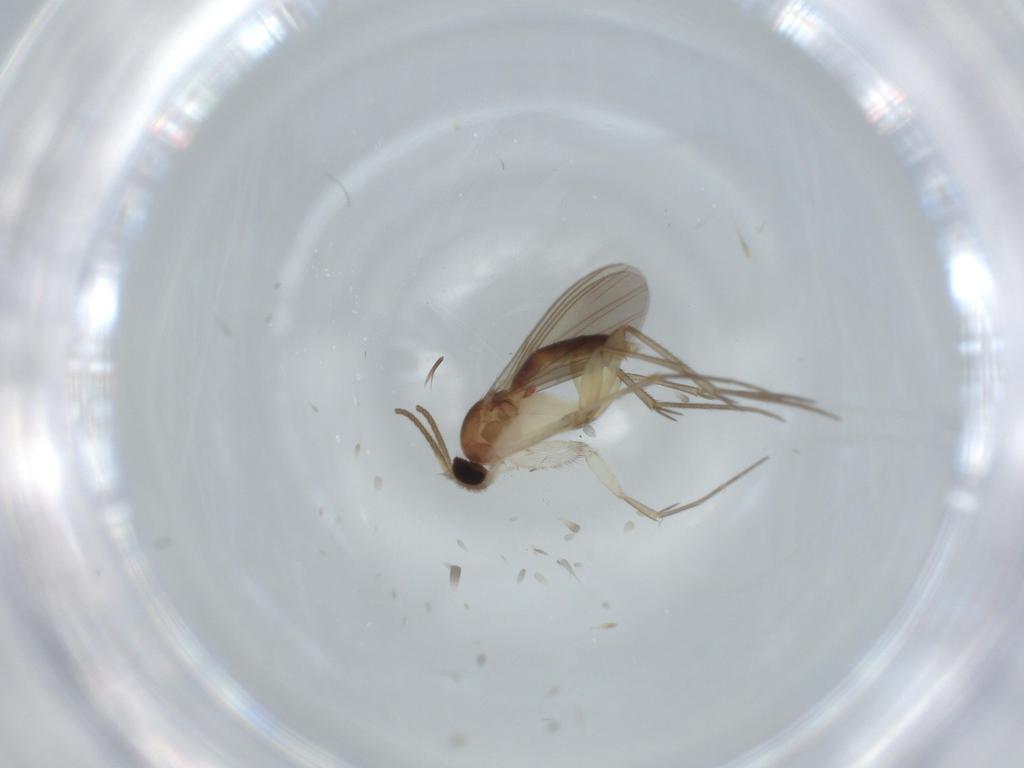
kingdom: Animalia
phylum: Arthropoda
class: Insecta
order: Diptera
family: Mycetophilidae
